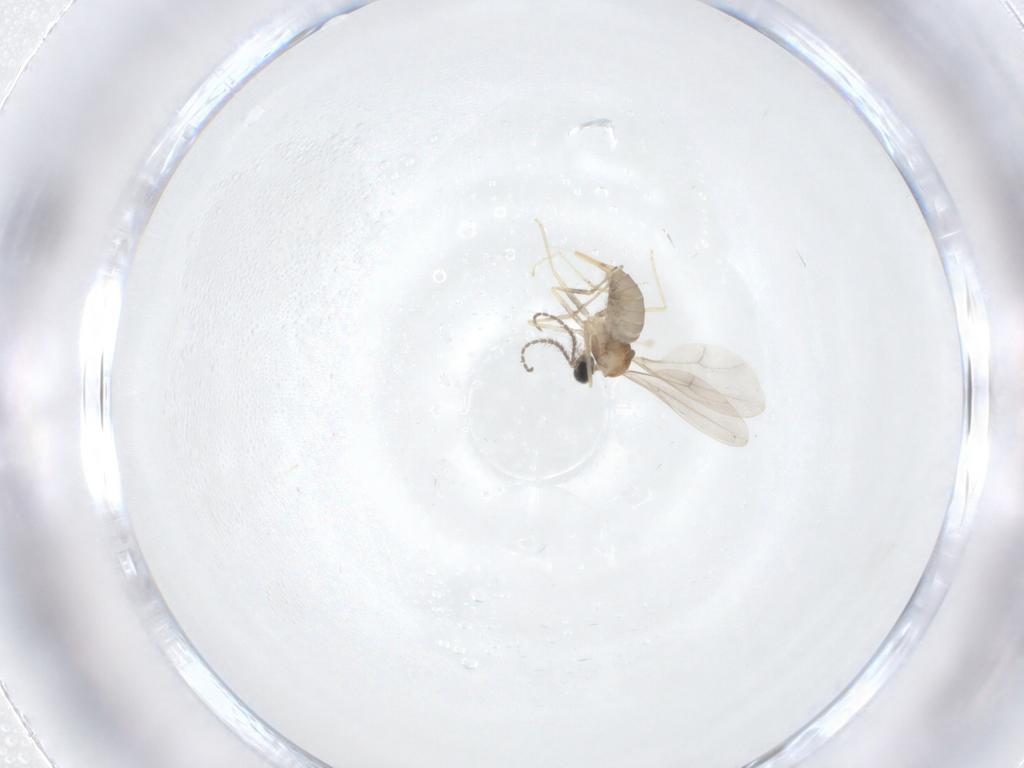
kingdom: Animalia
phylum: Arthropoda
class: Insecta
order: Diptera
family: Cecidomyiidae
